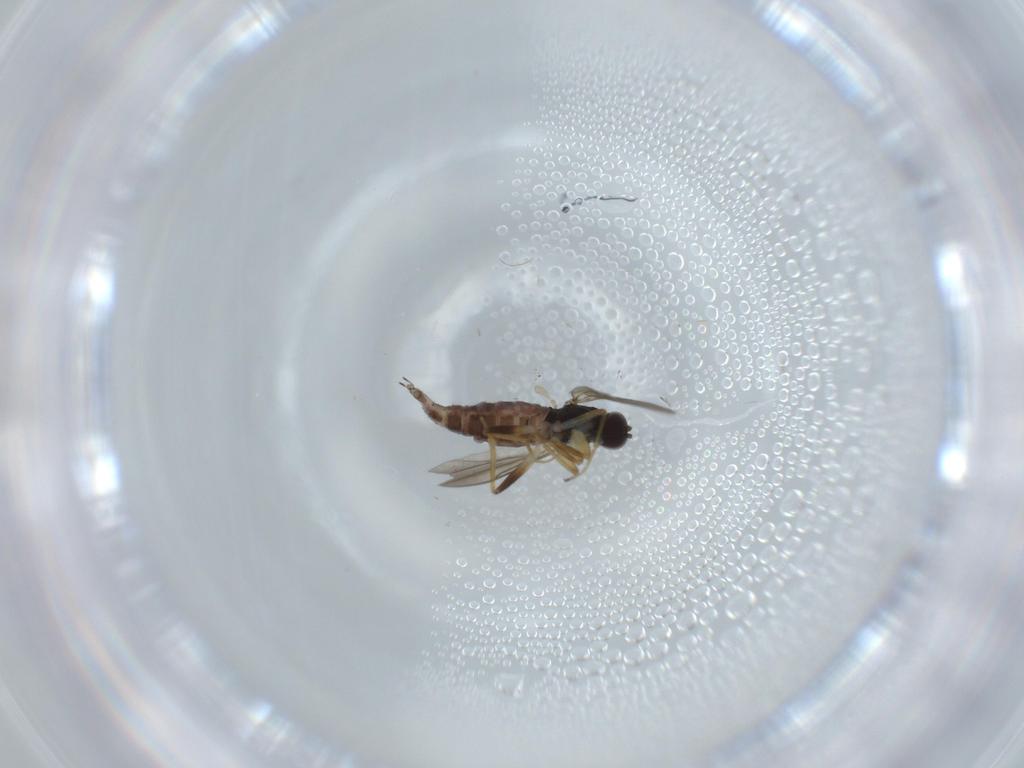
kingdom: Animalia
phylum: Arthropoda
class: Insecta
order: Diptera
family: Hybotidae
